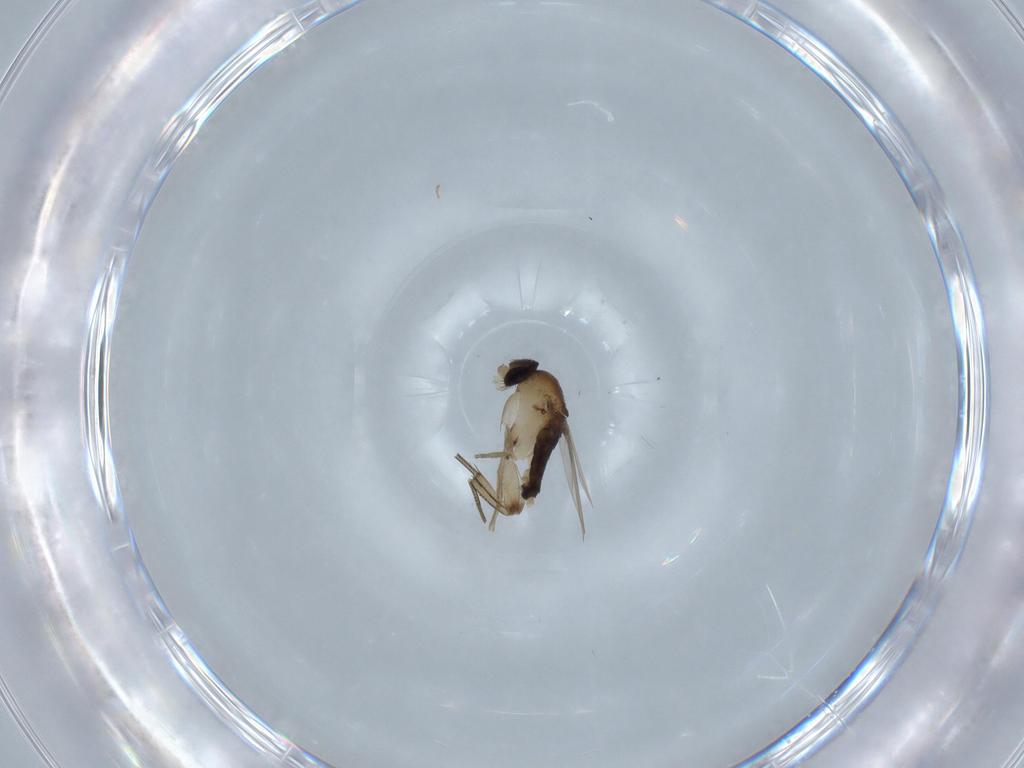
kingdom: Animalia
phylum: Arthropoda
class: Insecta
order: Diptera
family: Phoridae
